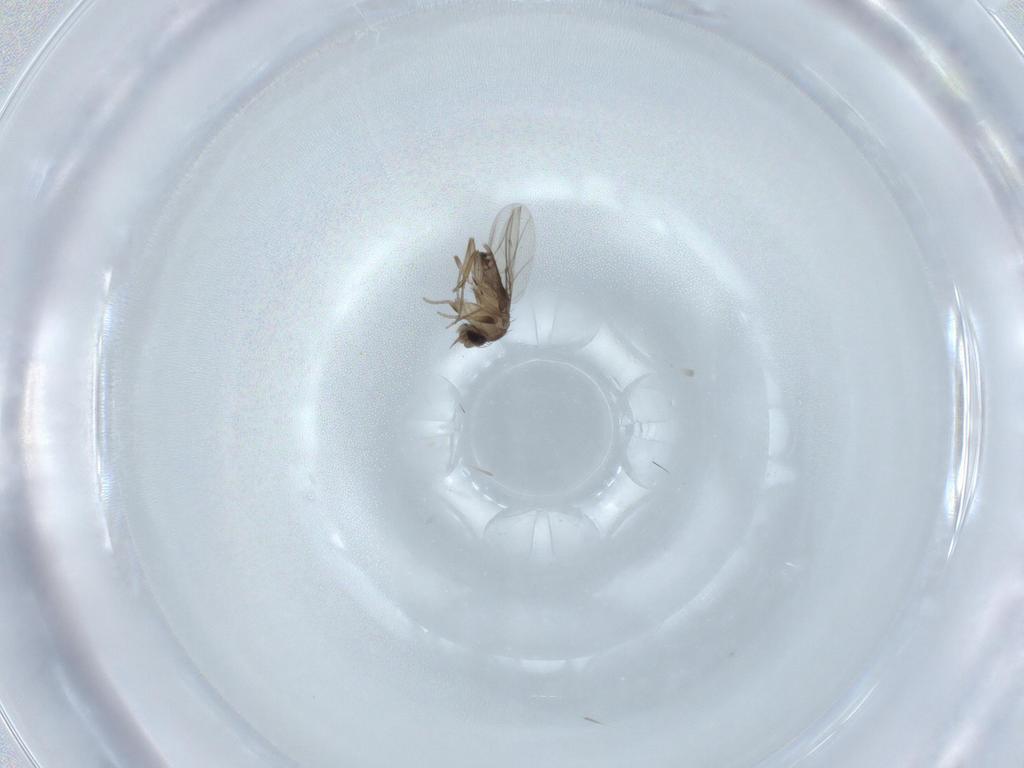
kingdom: Animalia
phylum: Arthropoda
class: Insecta
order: Diptera
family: Phoridae
